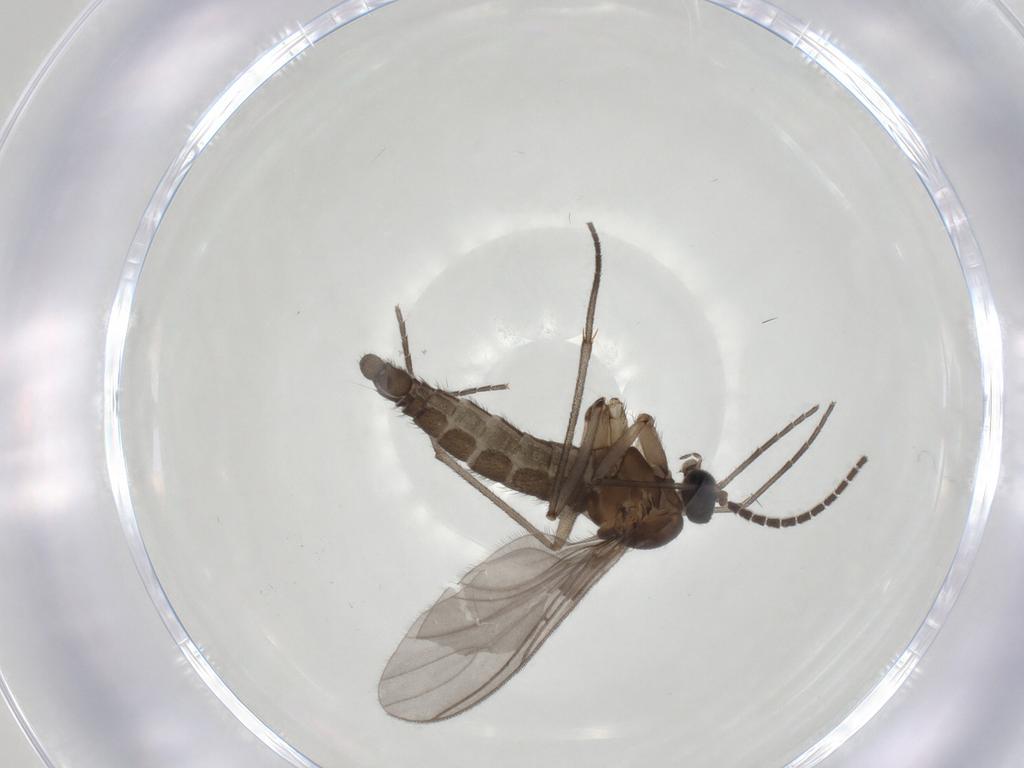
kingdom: Animalia
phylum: Arthropoda
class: Insecta
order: Diptera
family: Sciaridae
